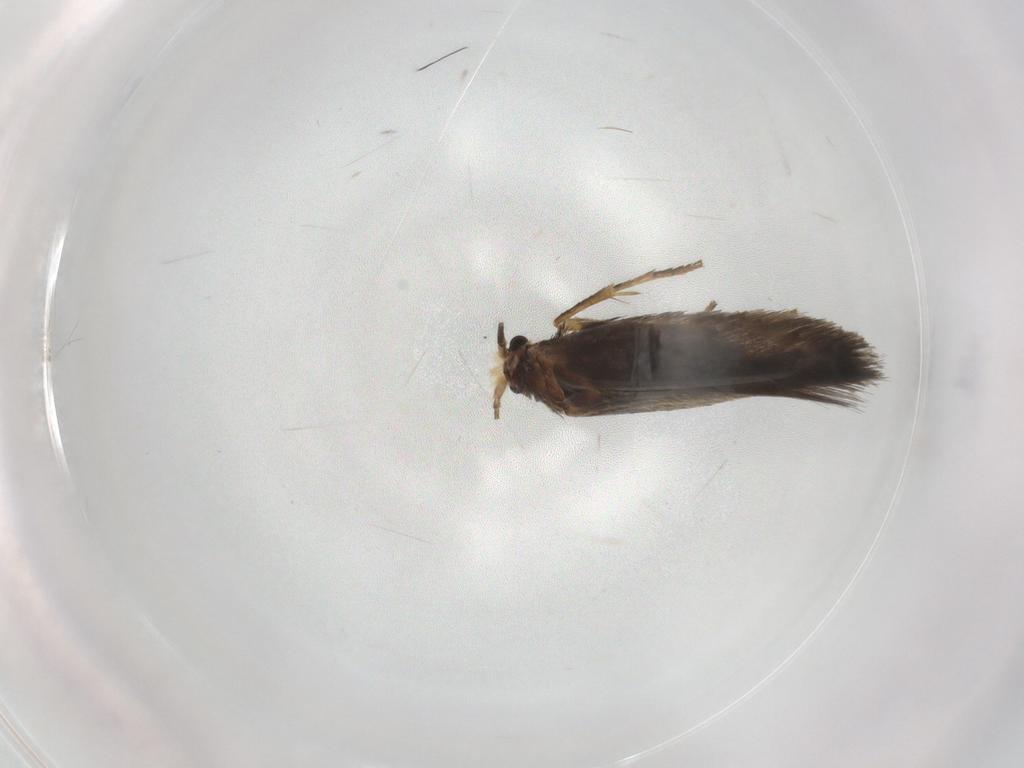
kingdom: Animalia
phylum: Arthropoda
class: Insecta
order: Lepidoptera
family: Nepticulidae
